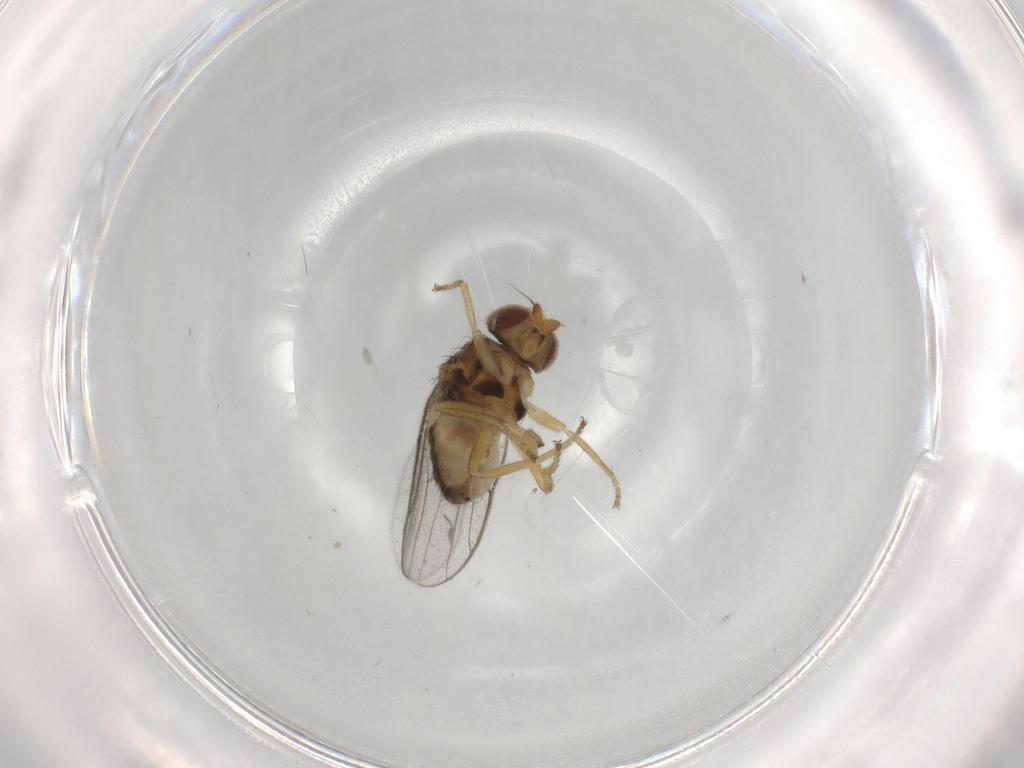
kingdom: Animalia
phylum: Arthropoda
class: Insecta
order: Diptera
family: Chloropidae
